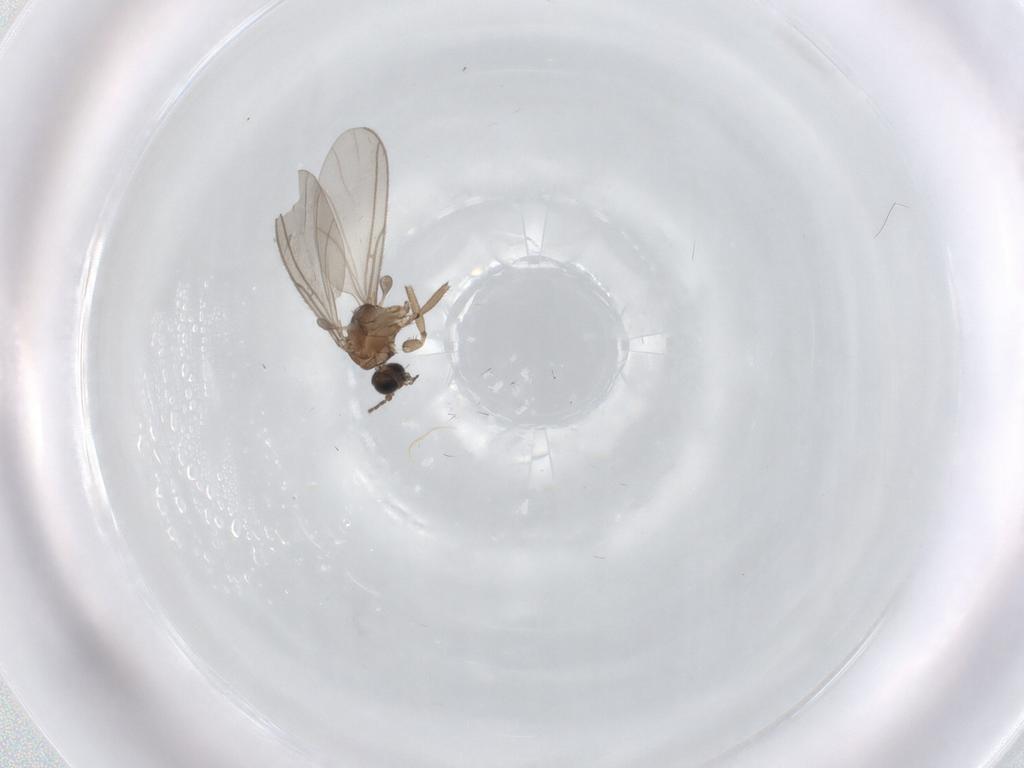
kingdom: Animalia
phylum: Arthropoda
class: Insecta
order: Diptera
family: Sciaridae
